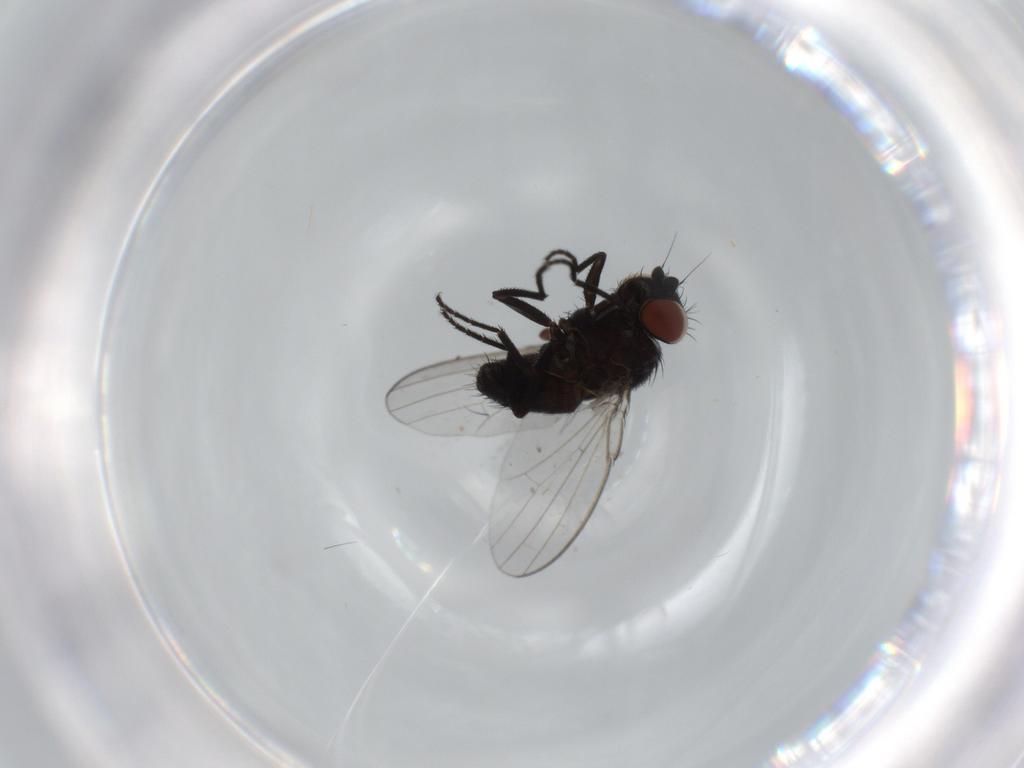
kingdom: Animalia
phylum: Arthropoda
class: Insecta
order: Diptera
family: Milichiidae
